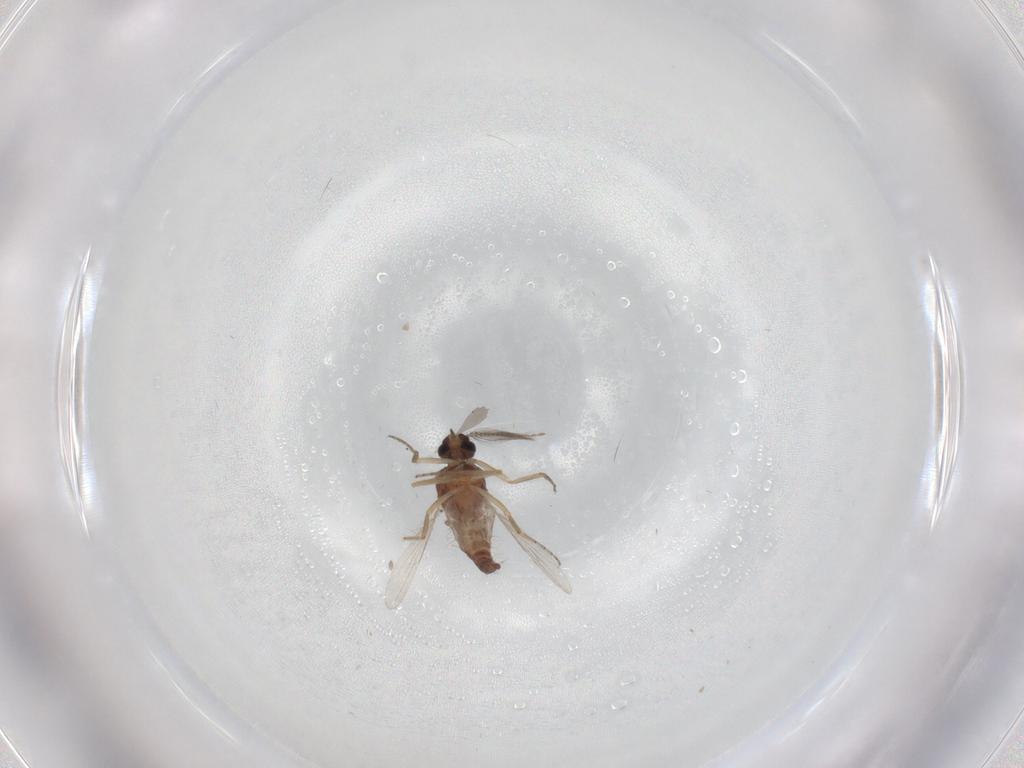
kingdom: Animalia
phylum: Arthropoda
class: Insecta
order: Diptera
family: Ceratopogonidae
